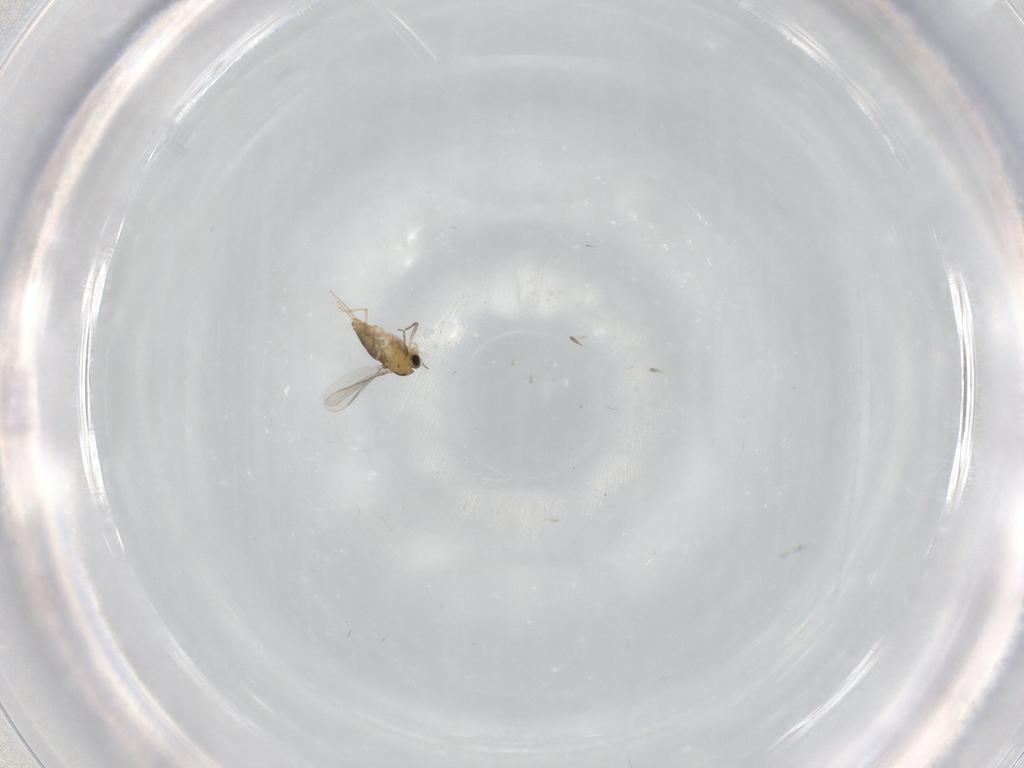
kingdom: Animalia
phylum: Arthropoda
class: Insecta
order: Diptera
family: Chironomidae
